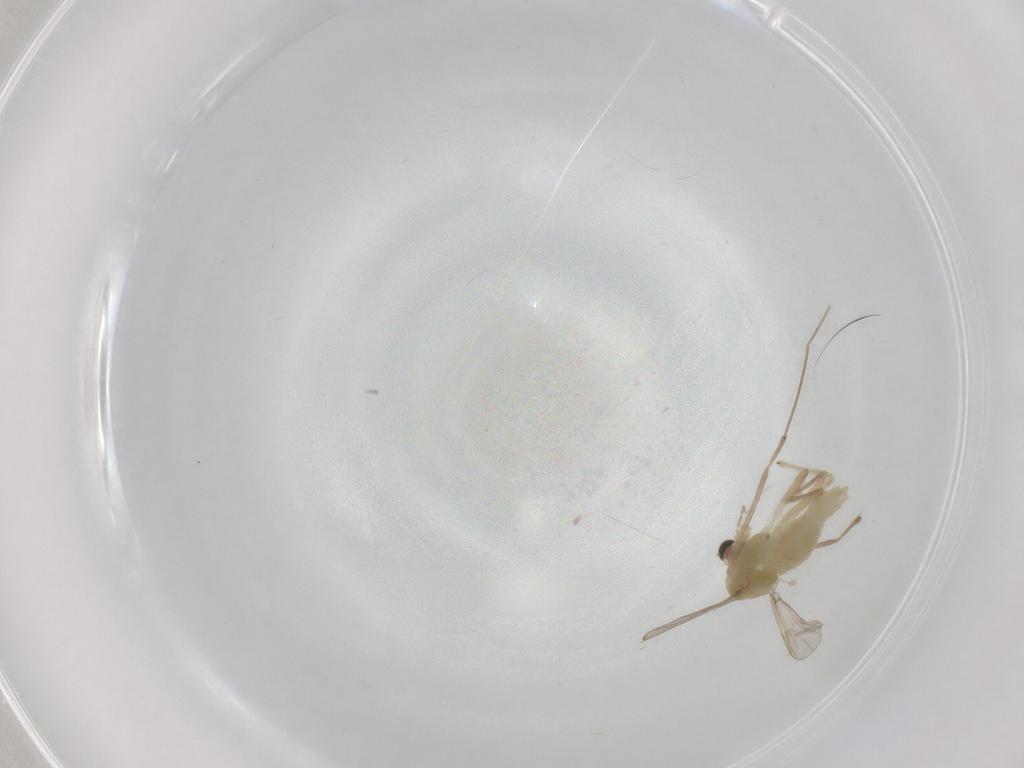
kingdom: Animalia
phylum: Arthropoda
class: Insecta
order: Diptera
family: Chironomidae
